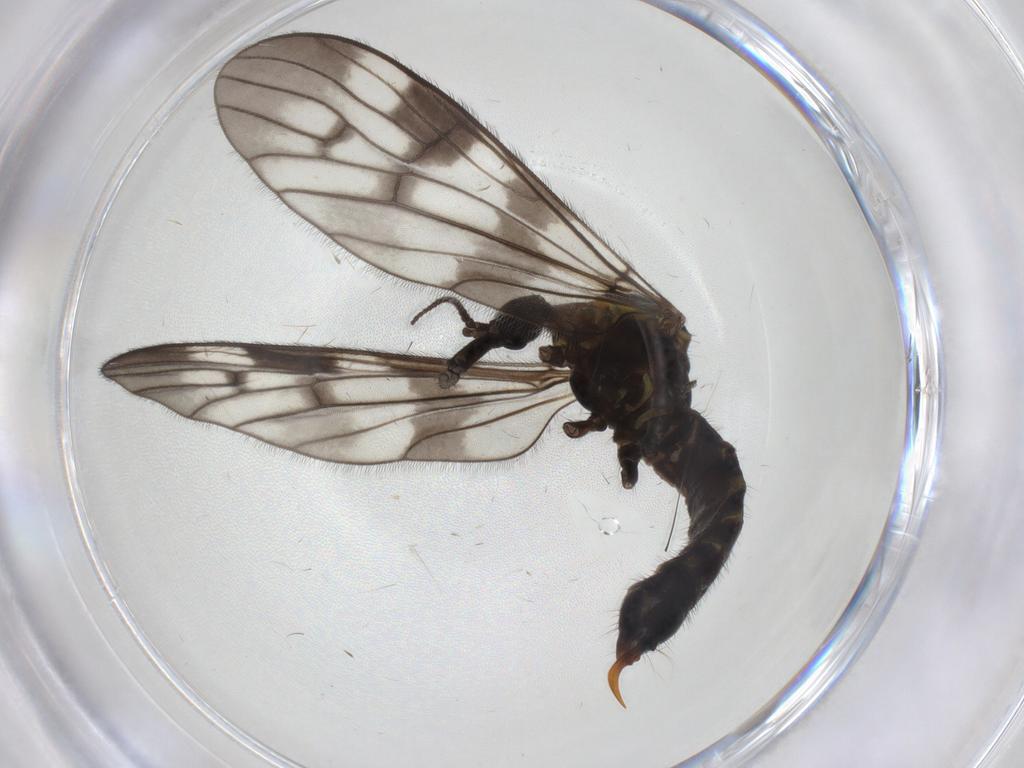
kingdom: Animalia
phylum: Arthropoda
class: Insecta
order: Diptera
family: Limoniidae
